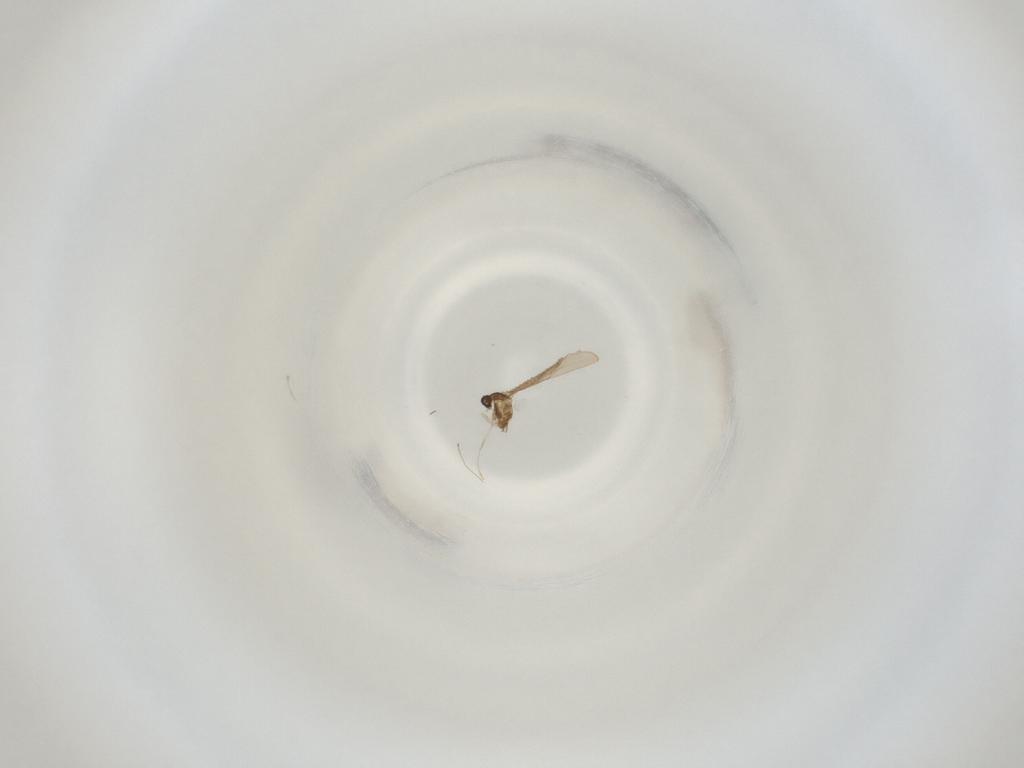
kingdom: Animalia
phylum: Arthropoda
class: Insecta
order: Diptera
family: Cecidomyiidae
